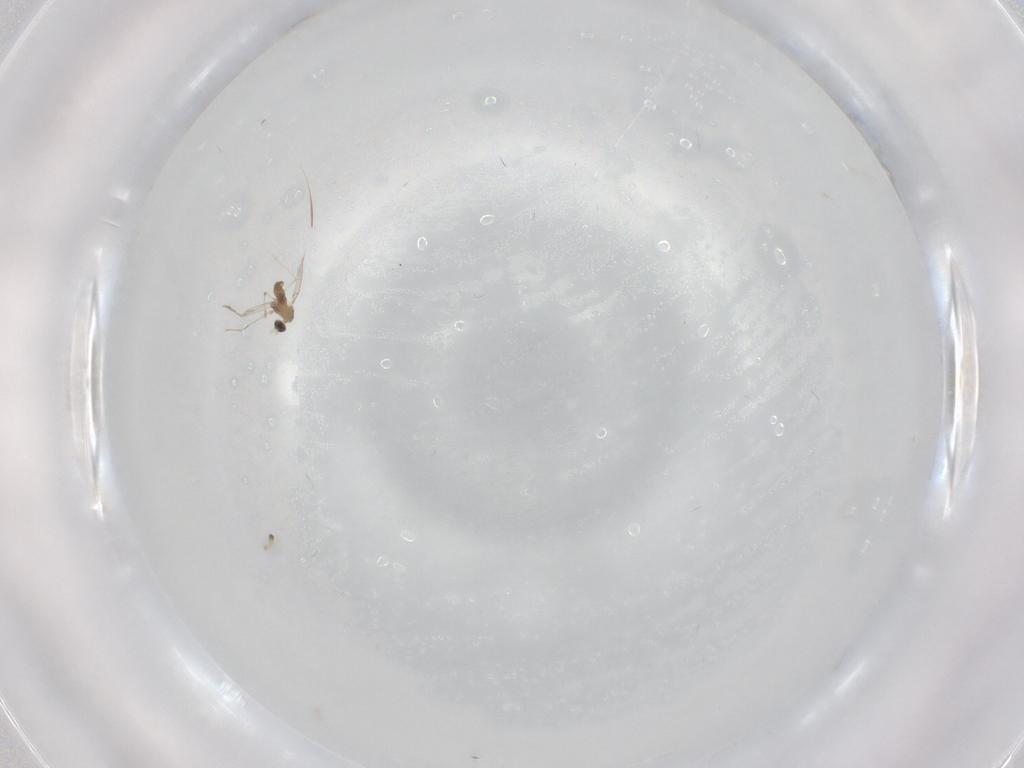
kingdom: Animalia
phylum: Arthropoda
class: Insecta
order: Diptera
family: Cecidomyiidae
